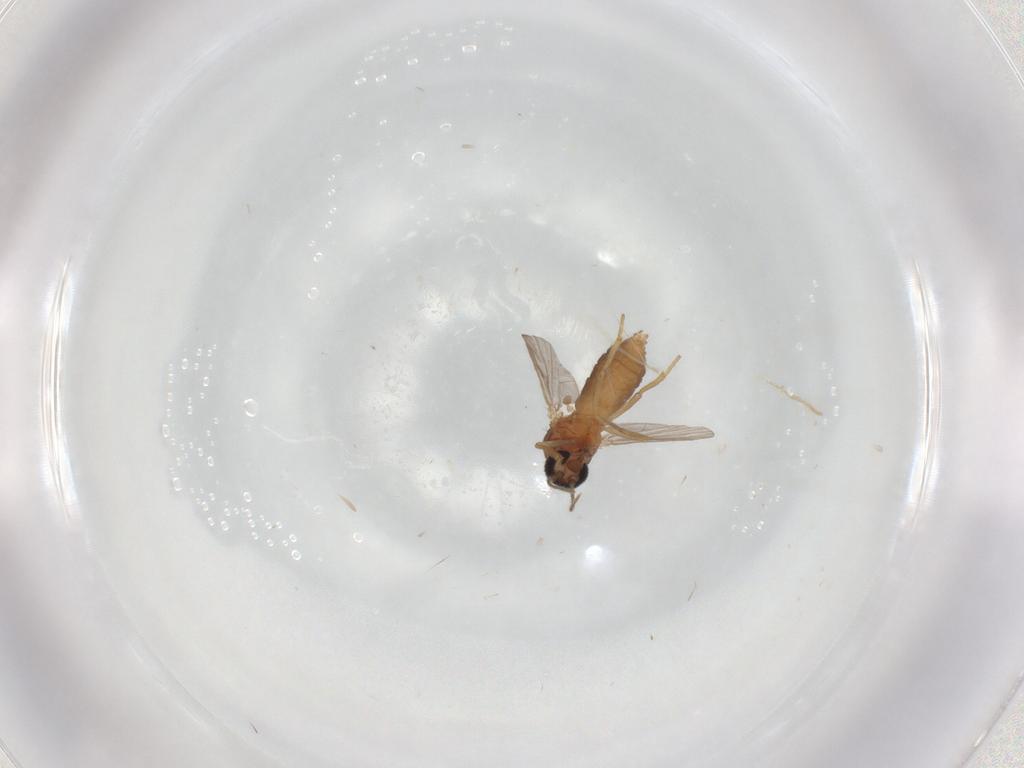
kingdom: Animalia
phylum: Arthropoda
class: Insecta
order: Diptera
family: Ceratopogonidae
